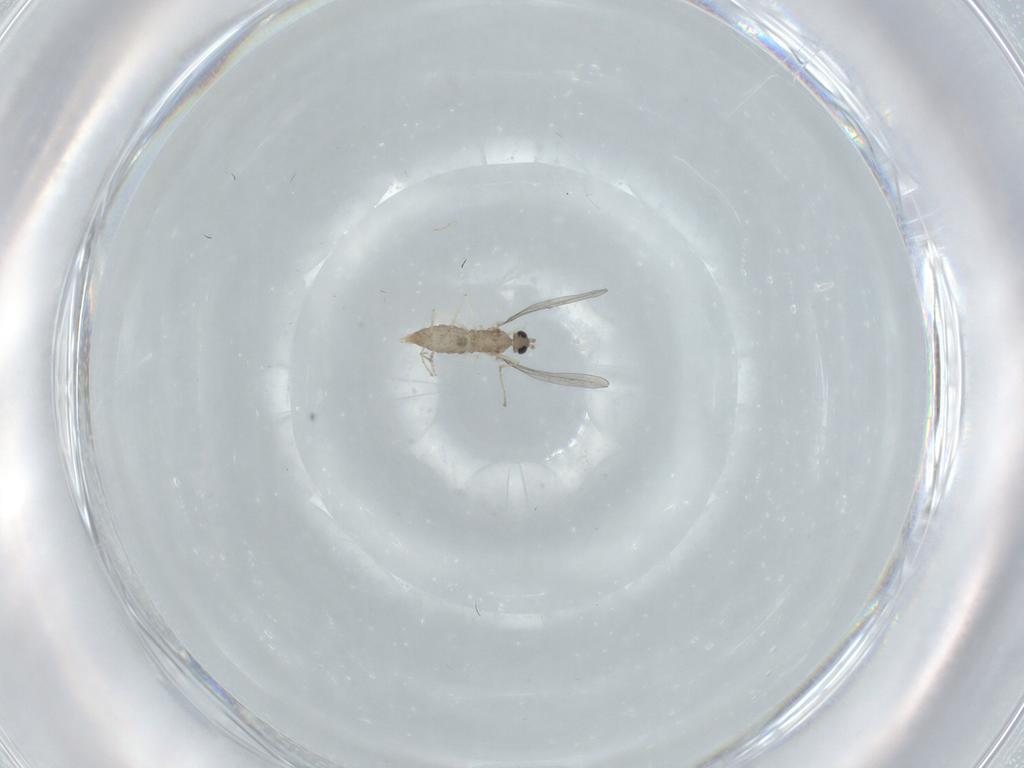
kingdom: Animalia
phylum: Arthropoda
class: Insecta
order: Diptera
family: Cecidomyiidae
